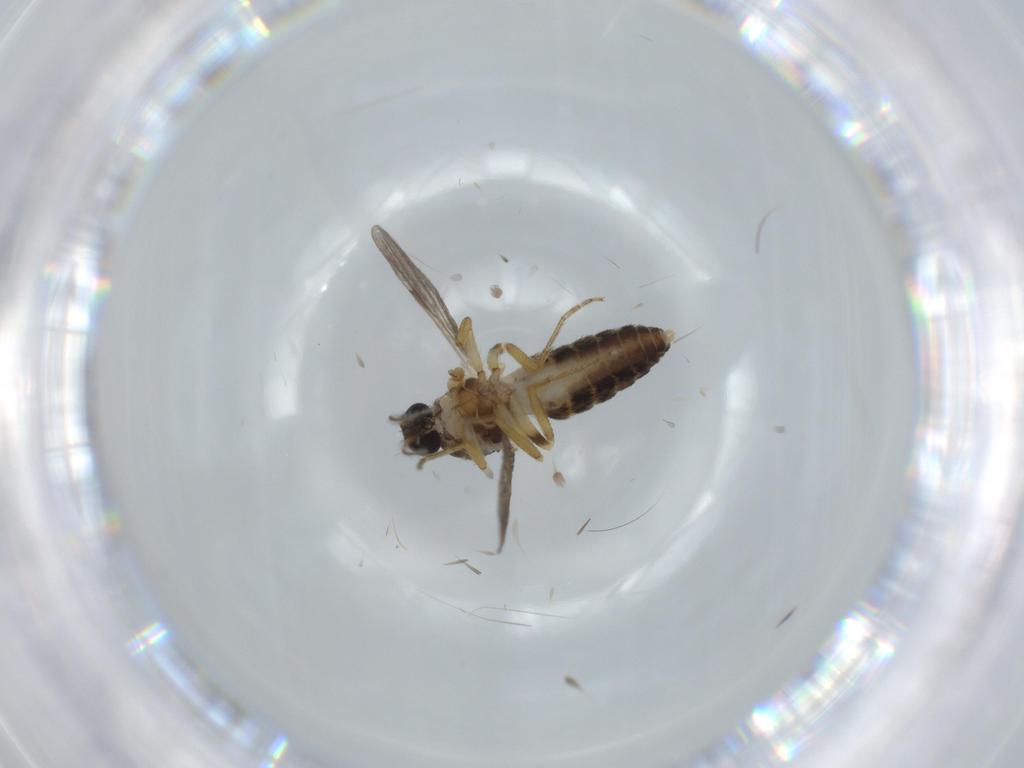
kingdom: Animalia
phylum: Arthropoda
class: Insecta
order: Diptera
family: Ceratopogonidae
